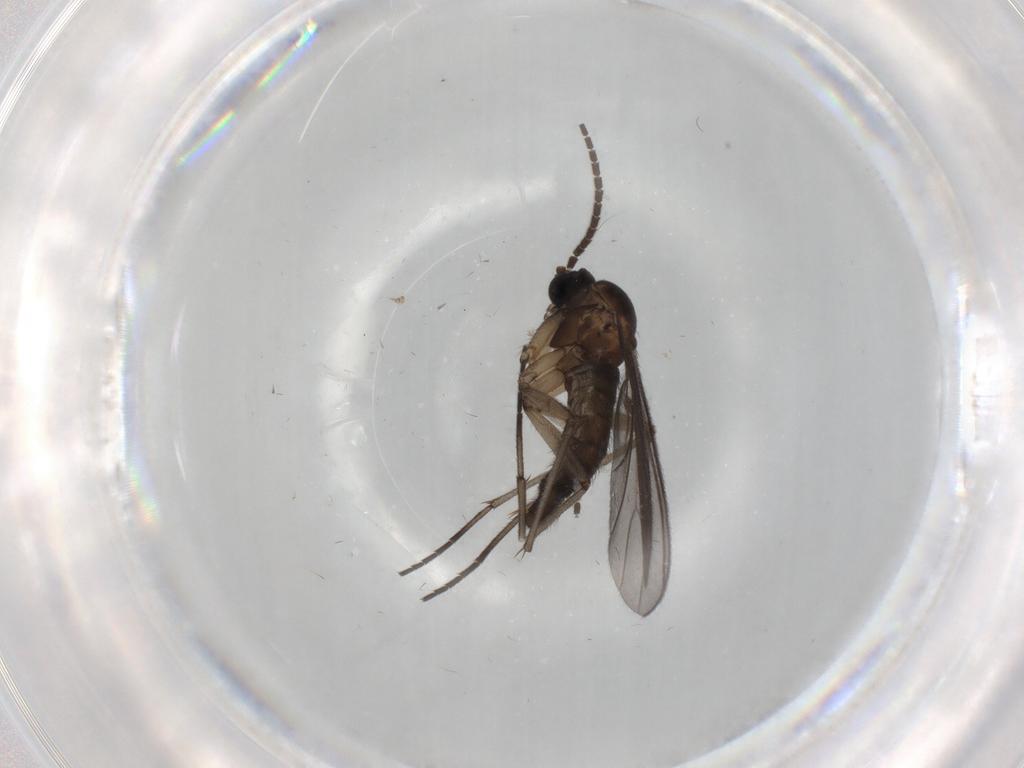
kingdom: Animalia
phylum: Arthropoda
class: Insecta
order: Diptera
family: Sciaridae
